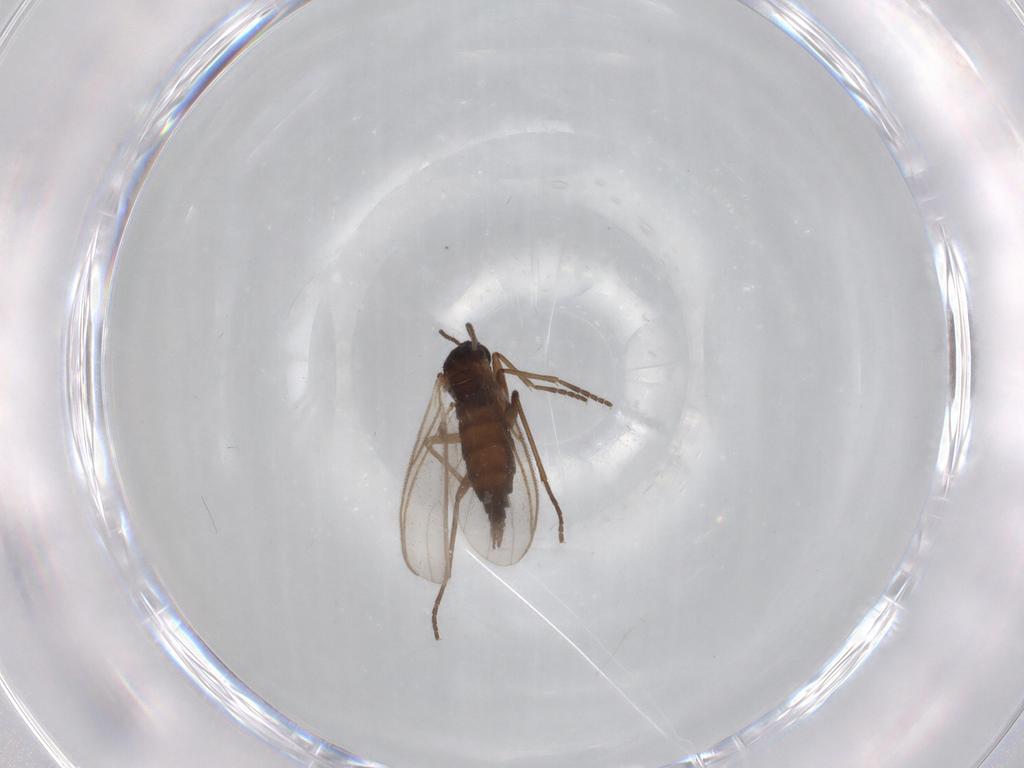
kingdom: Animalia
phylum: Arthropoda
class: Insecta
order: Diptera
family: Sciaridae
